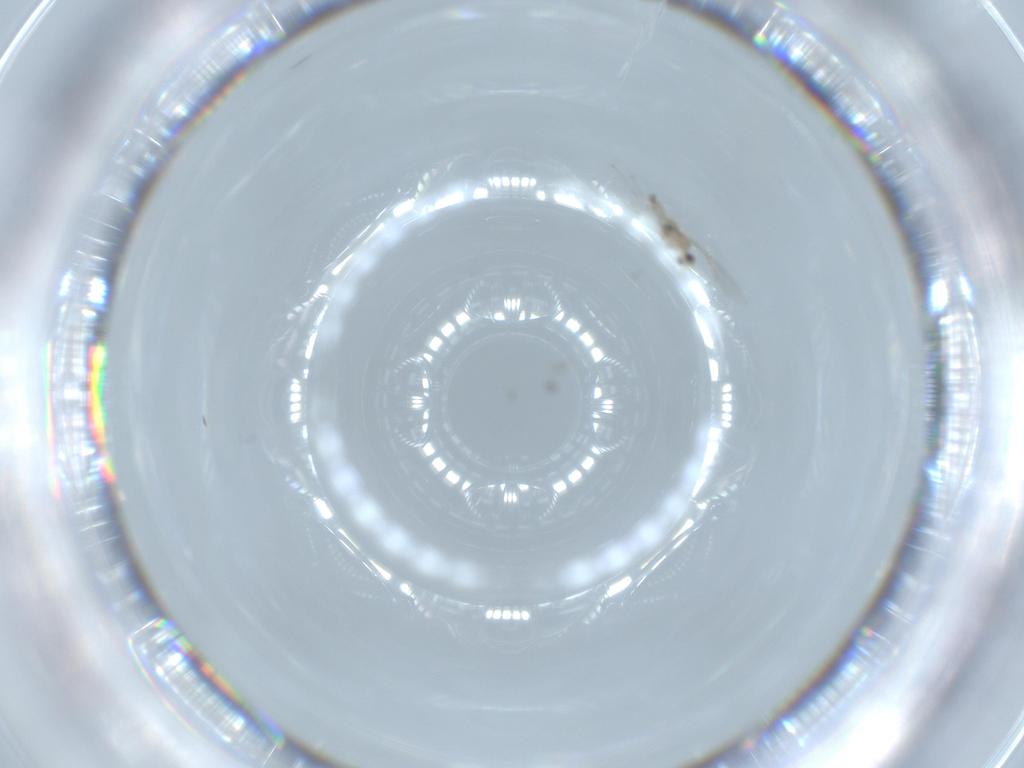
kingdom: Animalia
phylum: Arthropoda
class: Insecta
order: Diptera
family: Cecidomyiidae
